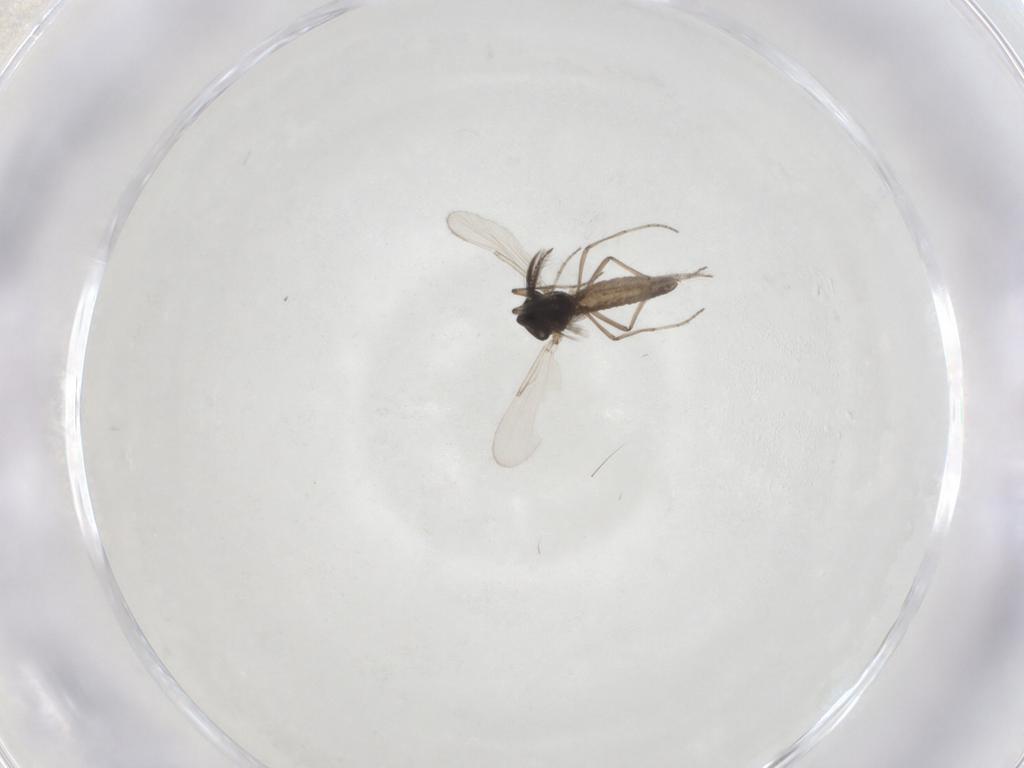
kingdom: Animalia
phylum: Arthropoda
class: Insecta
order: Diptera
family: Ceratopogonidae
